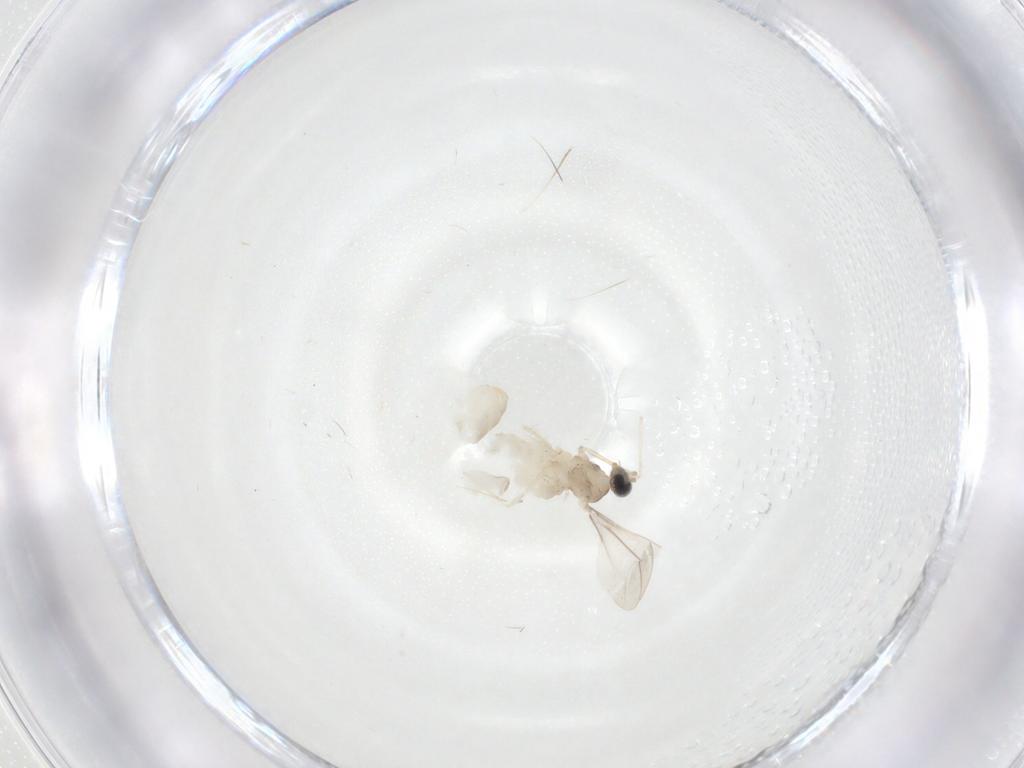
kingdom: Animalia
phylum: Arthropoda
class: Insecta
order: Diptera
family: Cecidomyiidae
